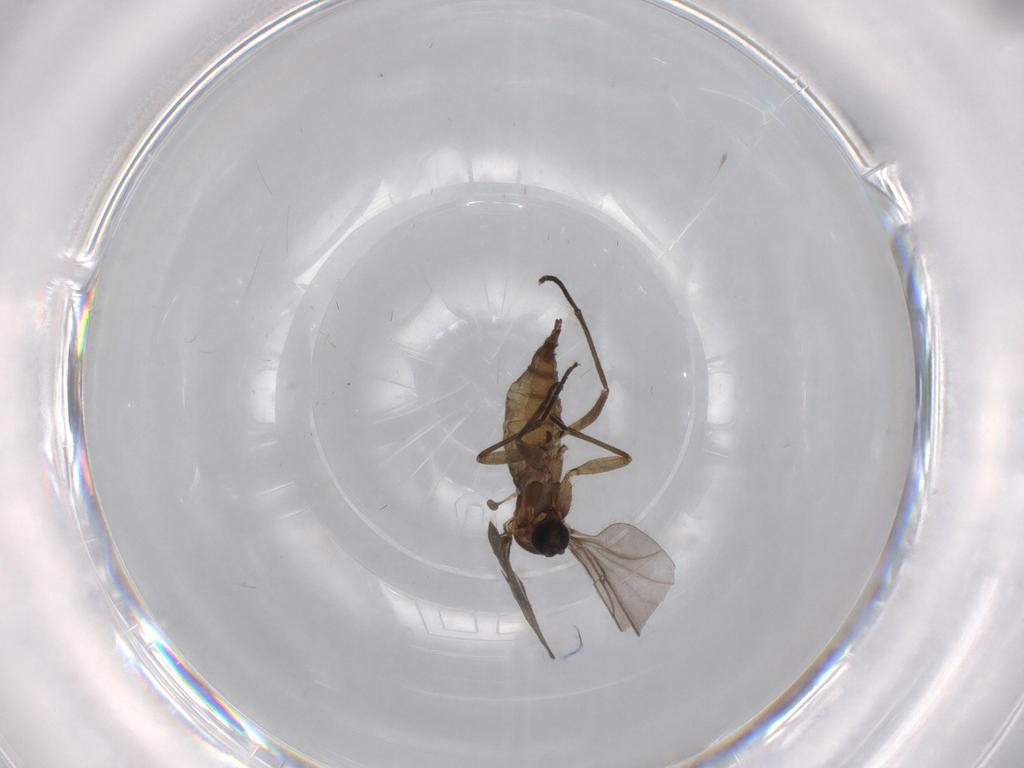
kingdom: Animalia
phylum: Arthropoda
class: Insecta
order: Diptera
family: Sciaridae
